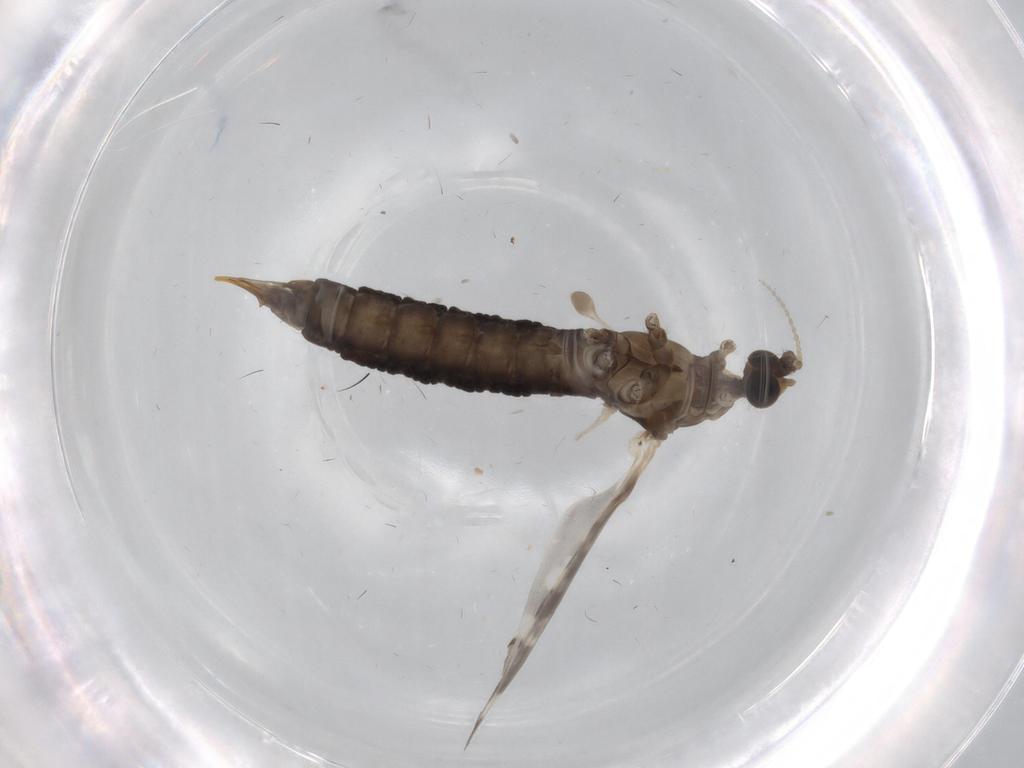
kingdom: Animalia
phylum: Arthropoda
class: Insecta
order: Diptera
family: Limoniidae
